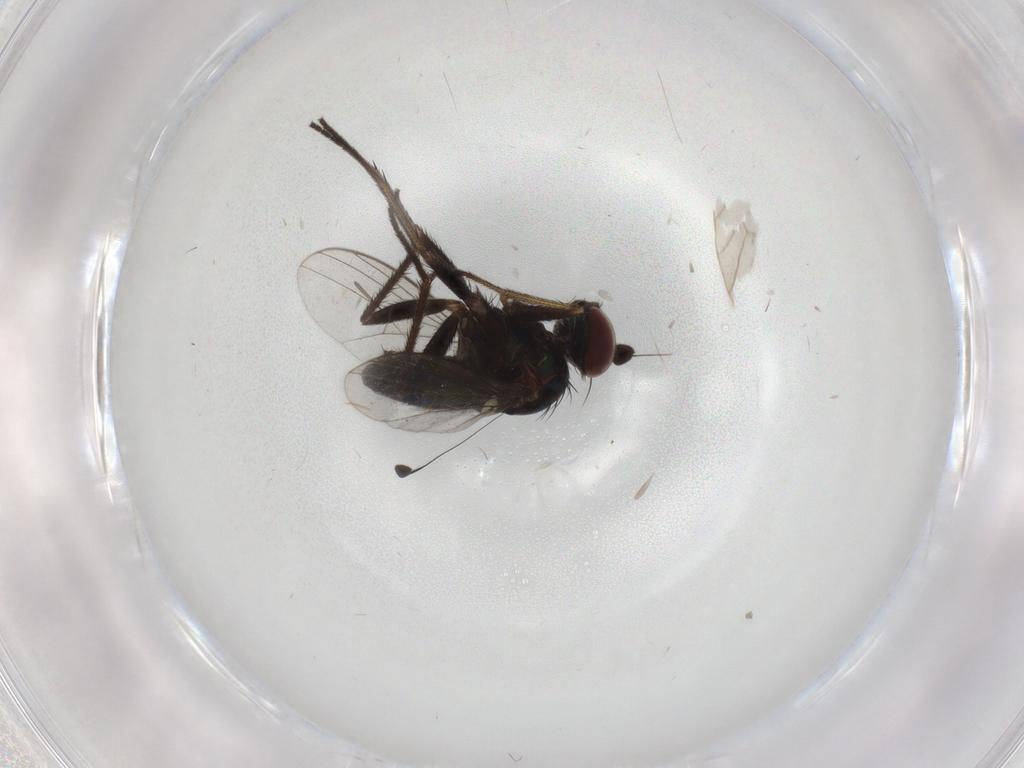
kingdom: Animalia
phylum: Arthropoda
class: Insecta
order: Diptera
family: Dolichopodidae
